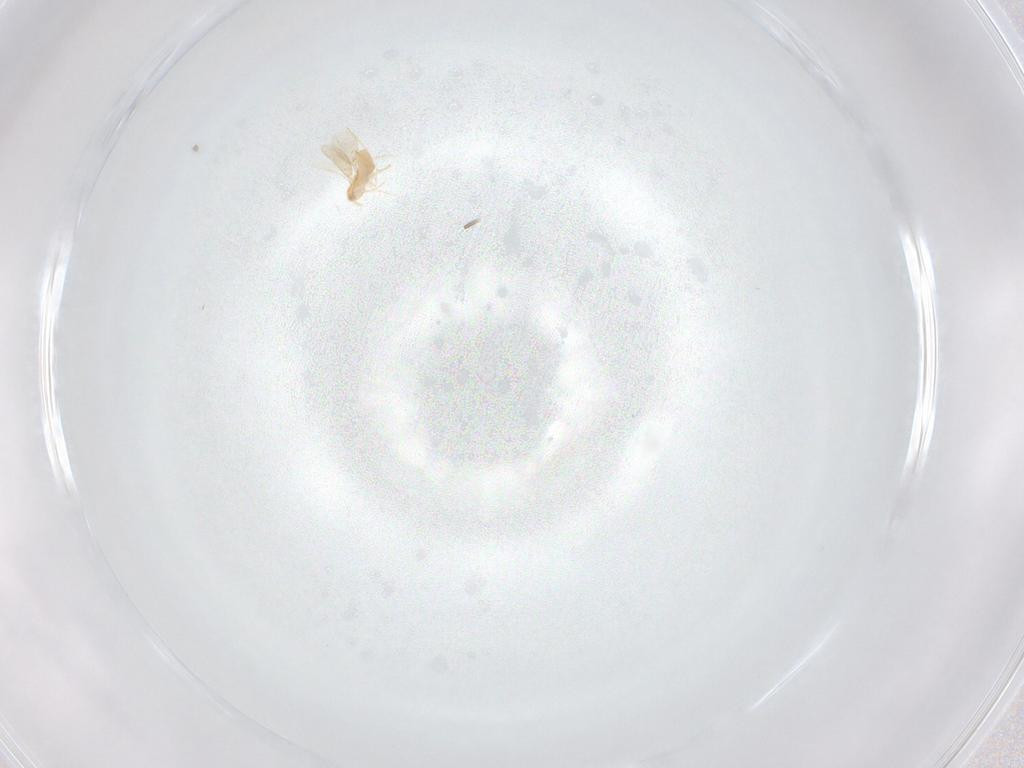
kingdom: Animalia
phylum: Arthropoda
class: Insecta
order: Hymenoptera
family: Aphelinidae
